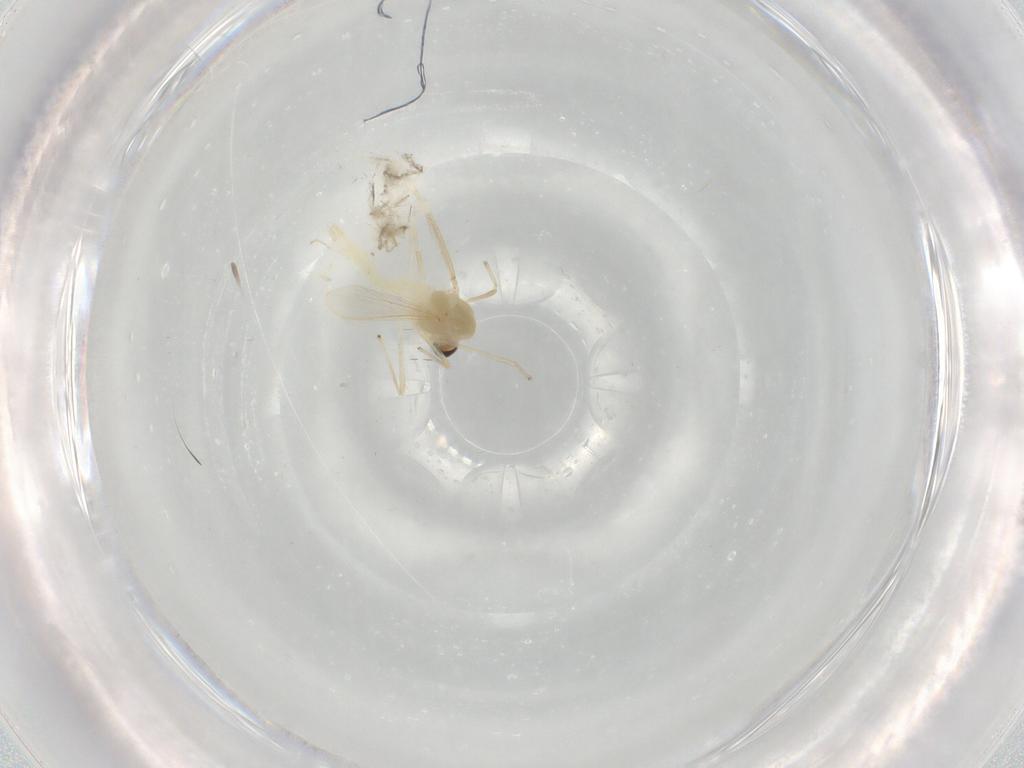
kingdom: Animalia
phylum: Arthropoda
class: Insecta
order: Diptera
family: Chironomidae
